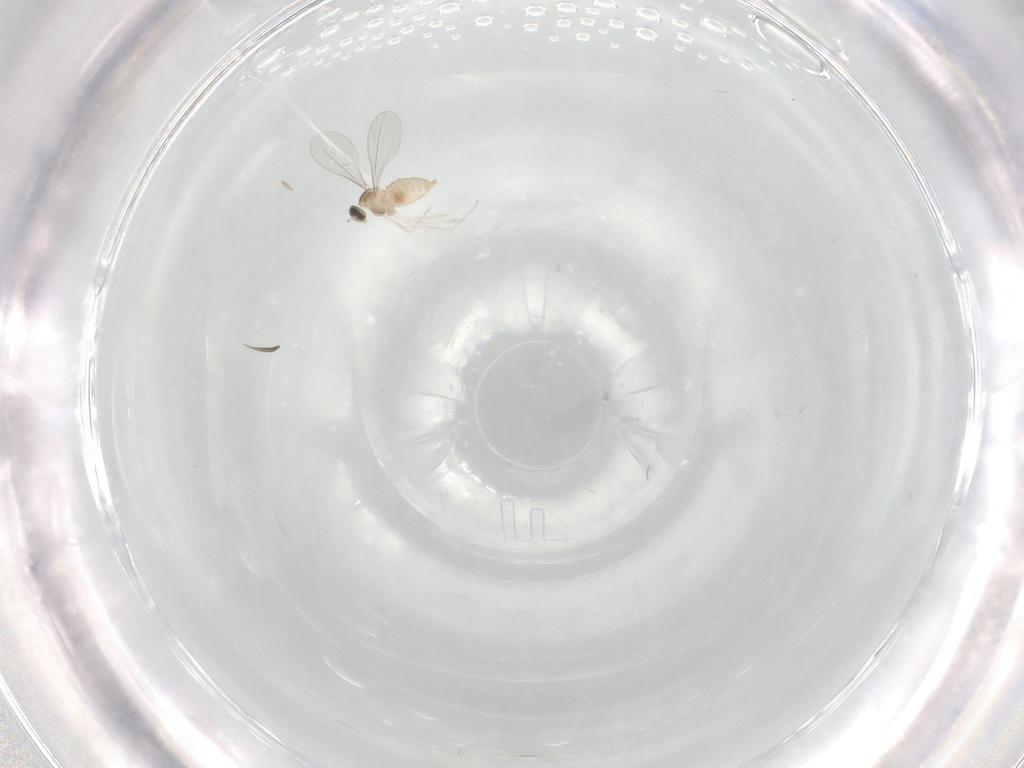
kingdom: Animalia
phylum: Arthropoda
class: Insecta
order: Diptera
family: Cecidomyiidae
